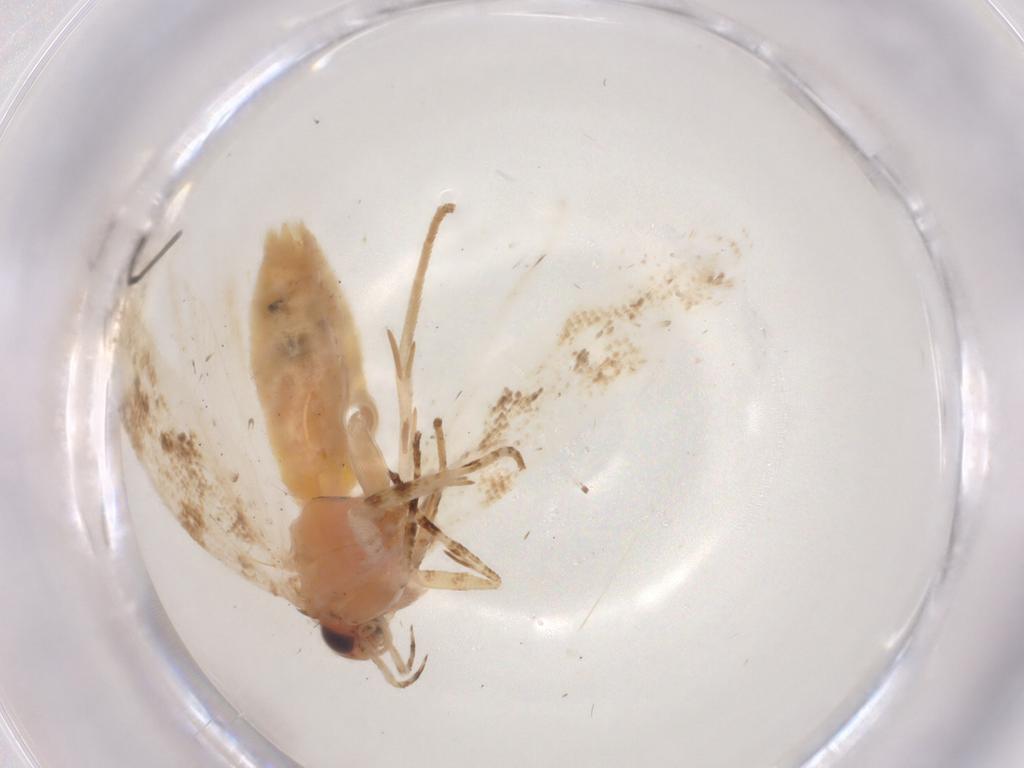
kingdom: Animalia
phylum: Arthropoda
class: Insecta
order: Lepidoptera
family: Gelechiidae
